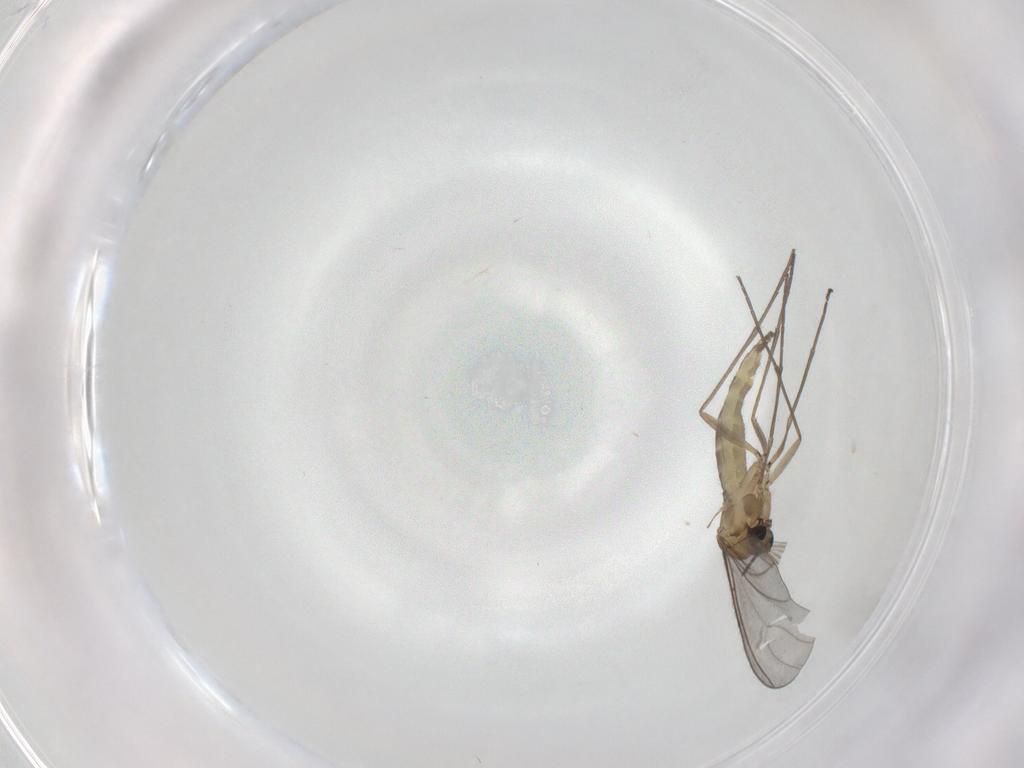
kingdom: Animalia
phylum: Arthropoda
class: Insecta
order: Diptera
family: Sciaridae
